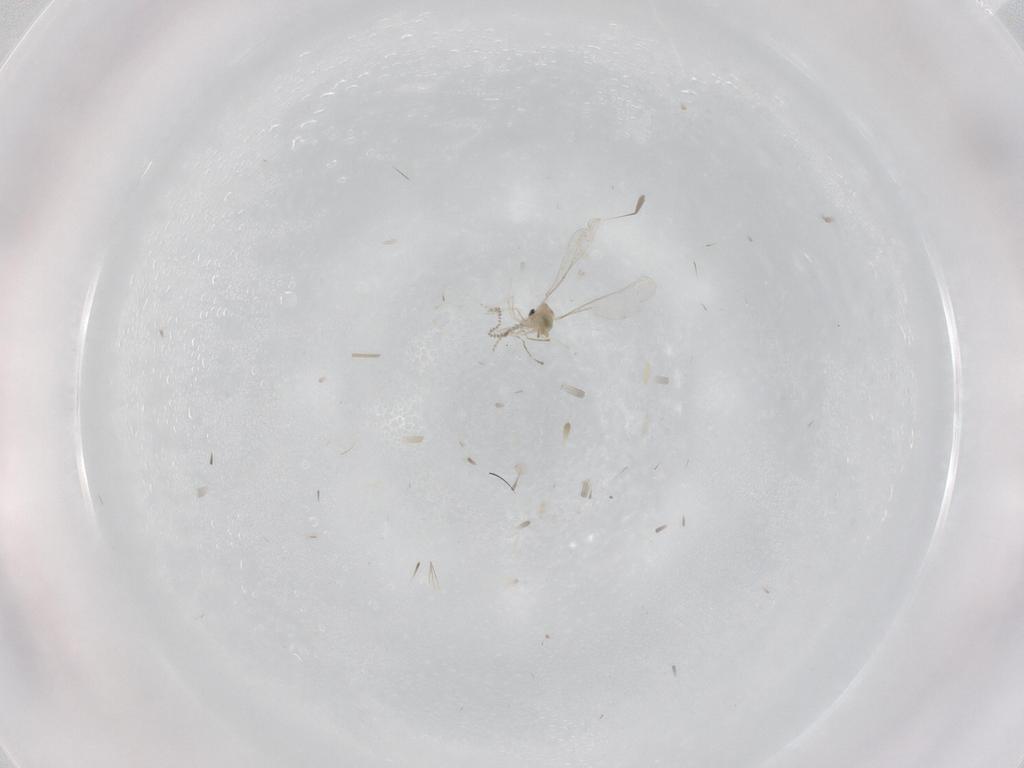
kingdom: Animalia
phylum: Arthropoda
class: Insecta
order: Diptera
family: Cecidomyiidae
